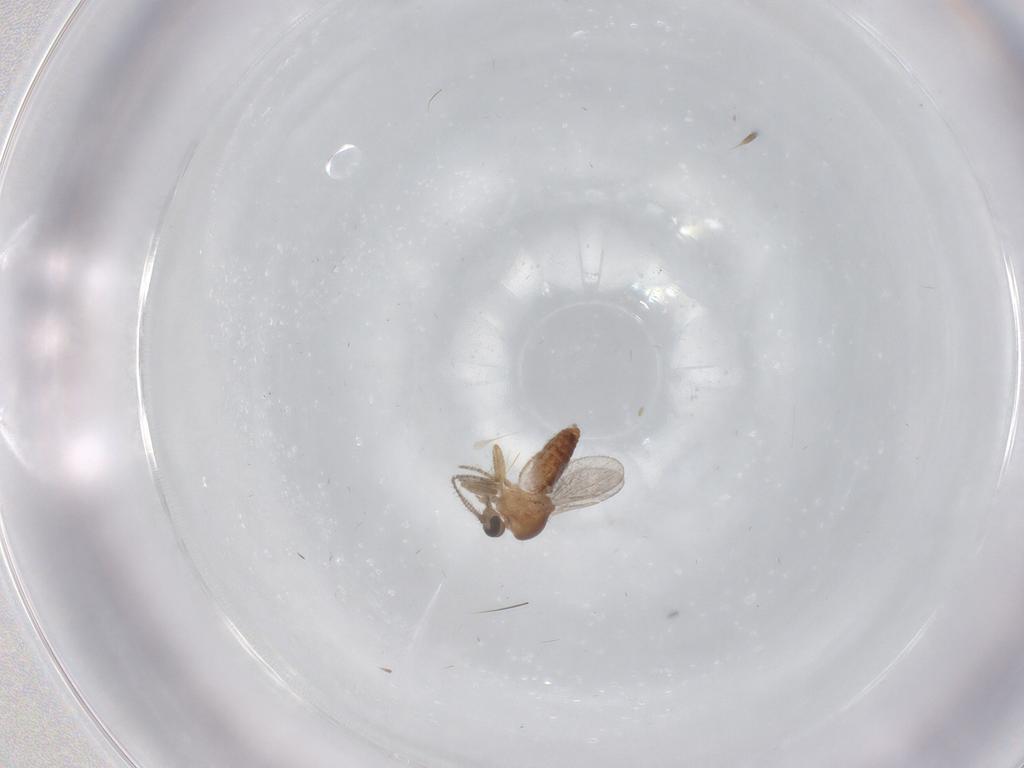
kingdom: Animalia
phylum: Arthropoda
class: Insecta
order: Diptera
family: Ceratopogonidae
